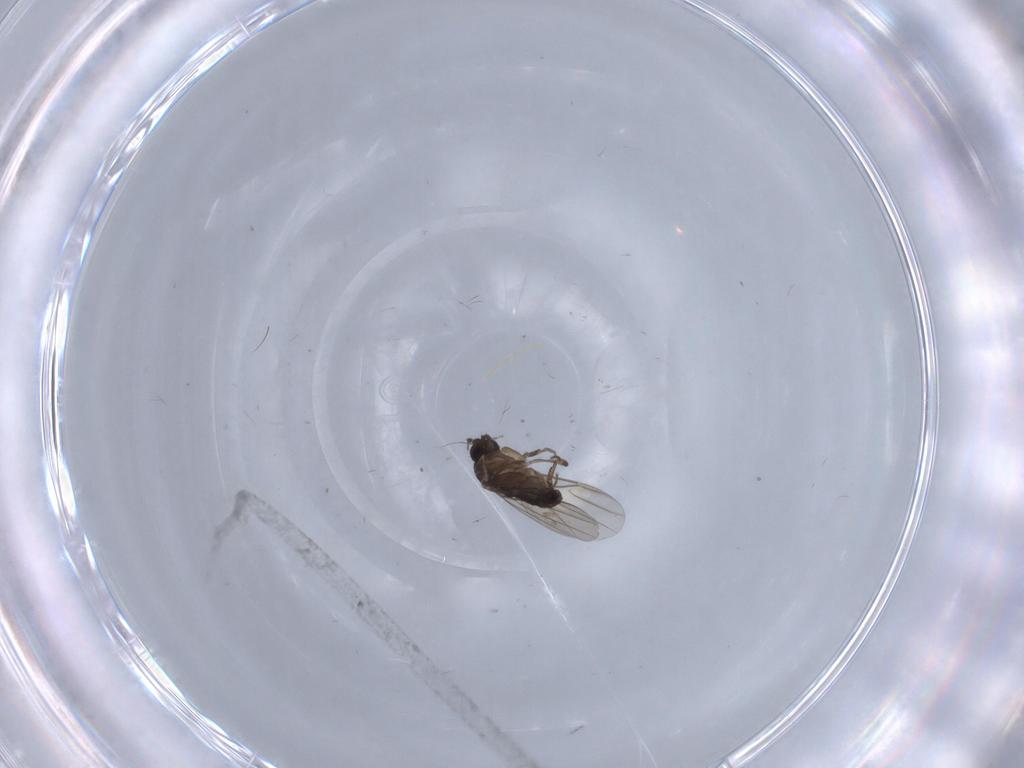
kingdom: Animalia
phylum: Arthropoda
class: Insecta
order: Diptera
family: Phoridae
